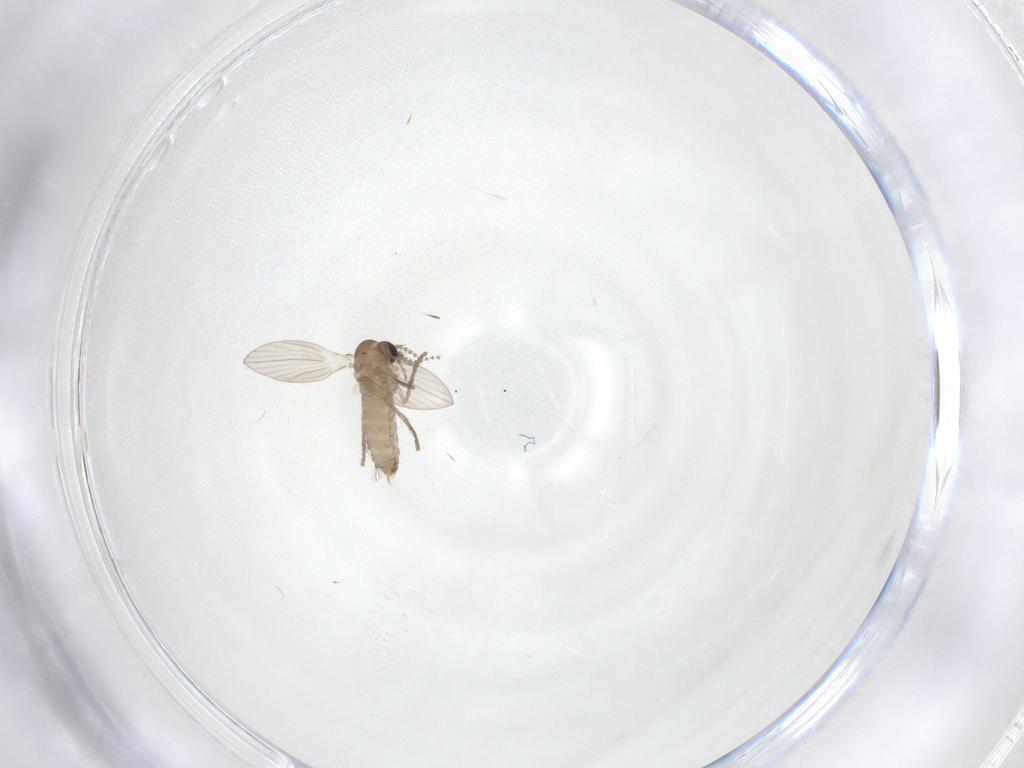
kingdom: Animalia
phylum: Arthropoda
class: Insecta
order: Diptera
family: Psychodidae
